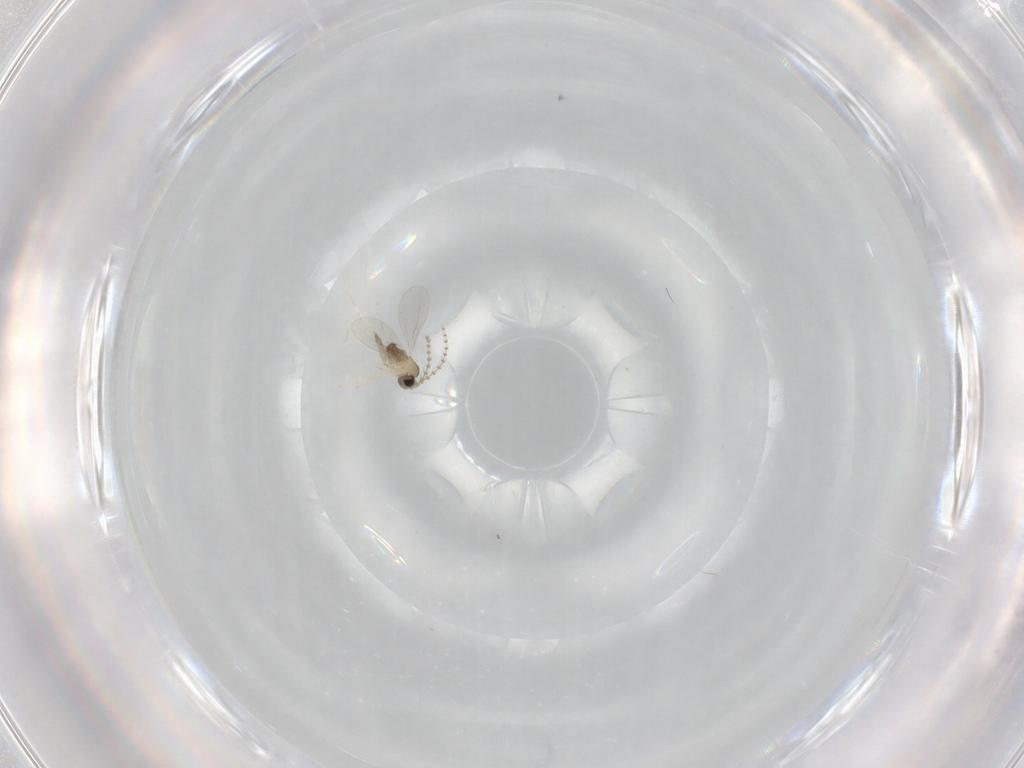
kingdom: Animalia
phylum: Arthropoda
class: Insecta
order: Diptera
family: Cecidomyiidae
